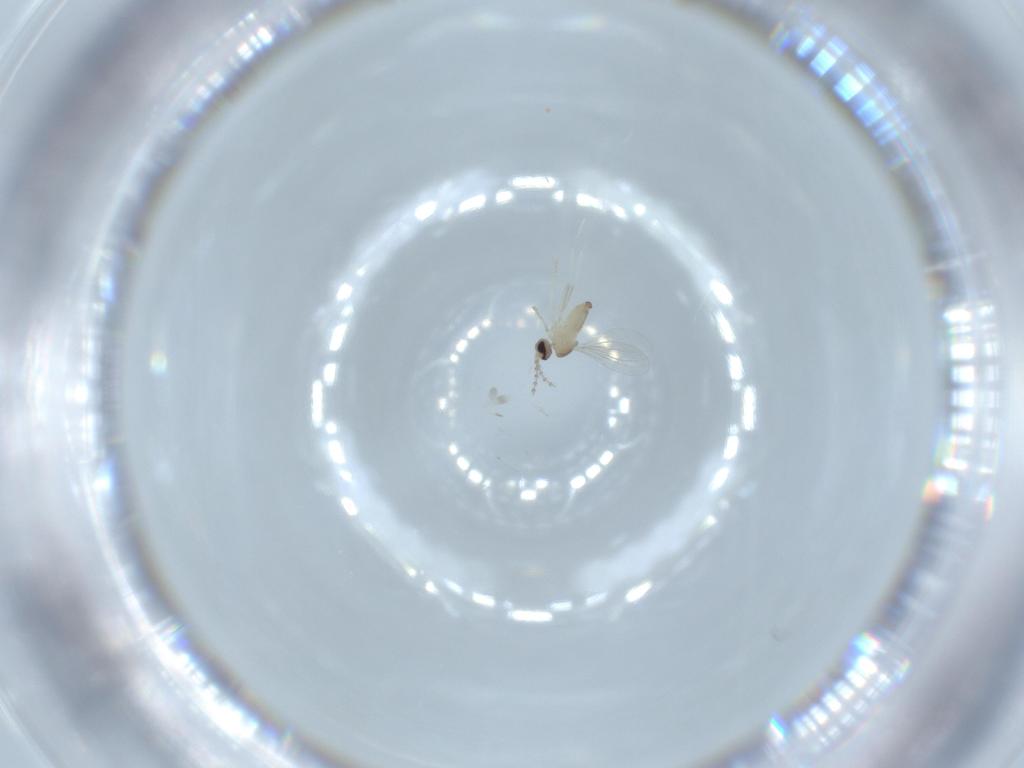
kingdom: Animalia
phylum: Arthropoda
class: Insecta
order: Diptera
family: Cecidomyiidae
